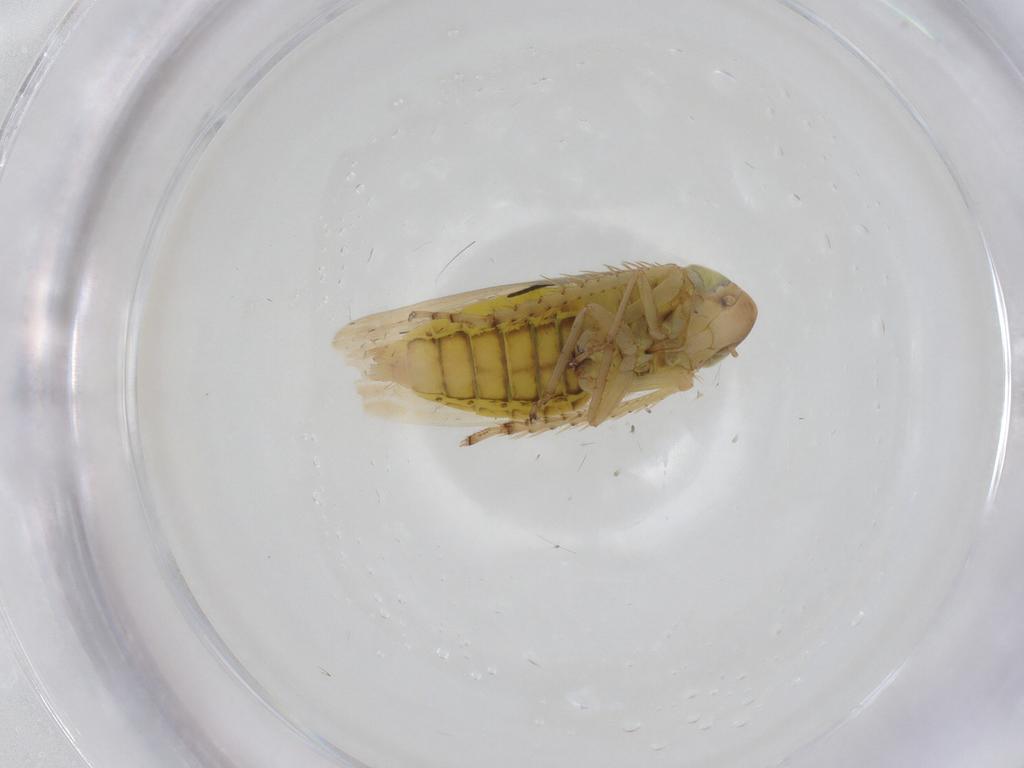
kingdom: Animalia
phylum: Arthropoda
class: Insecta
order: Hemiptera
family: Cicadellidae
